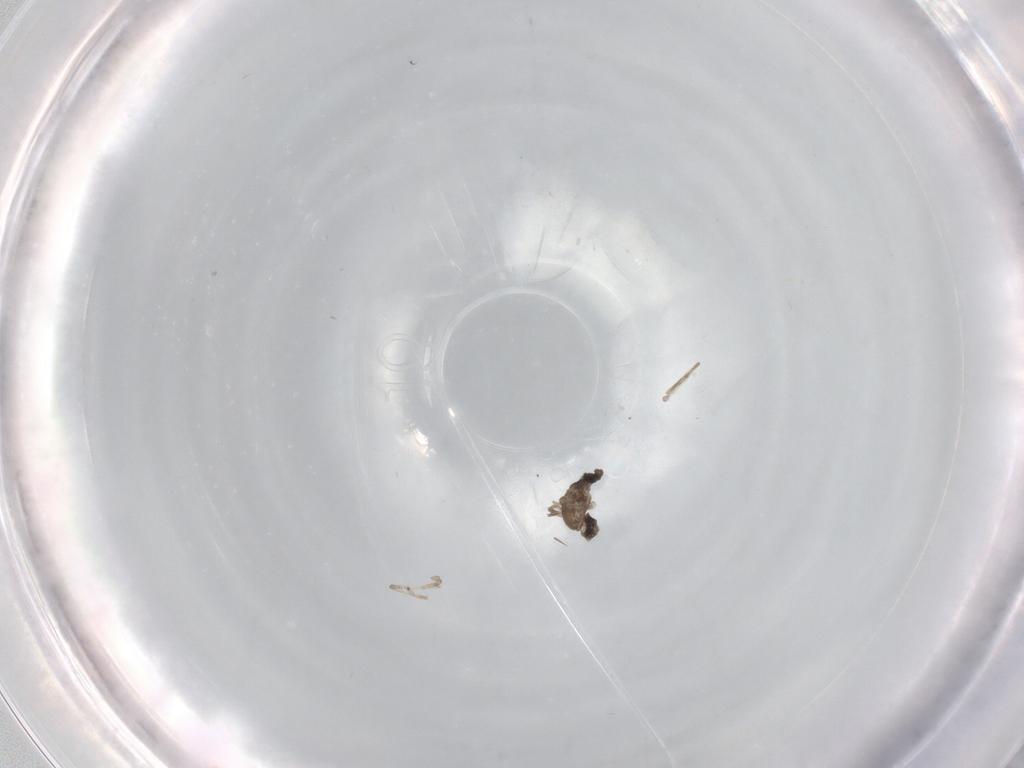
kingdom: Animalia
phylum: Arthropoda
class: Insecta
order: Diptera
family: Cecidomyiidae
